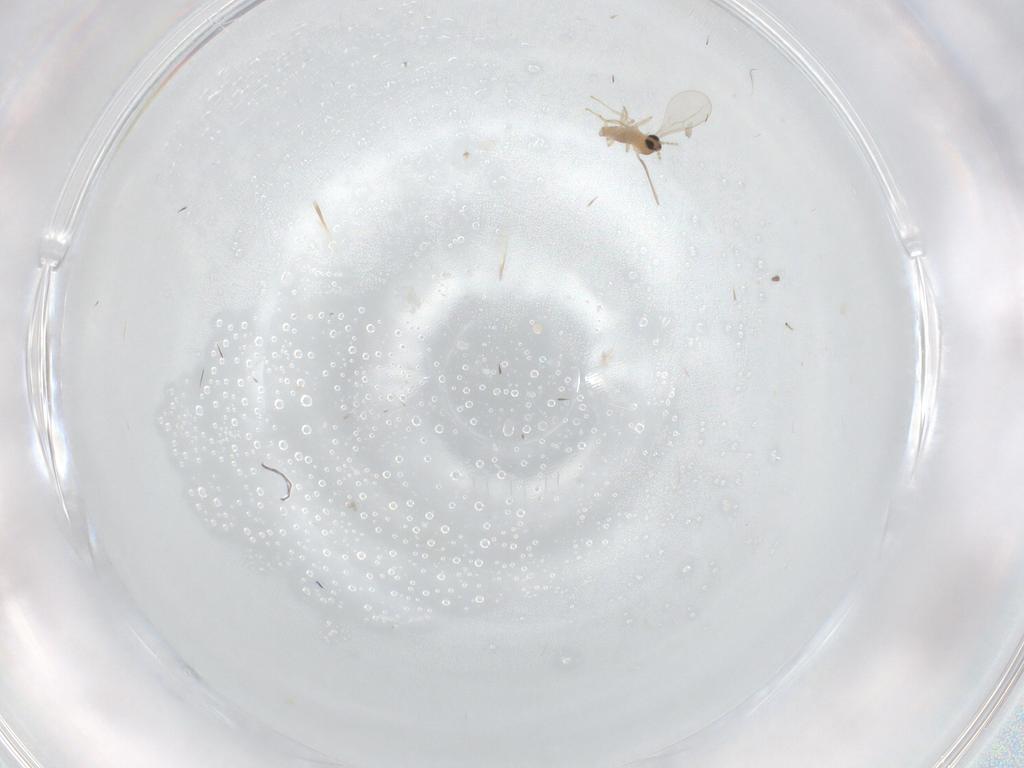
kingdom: Animalia
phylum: Arthropoda
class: Insecta
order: Diptera
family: Cecidomyiidae
